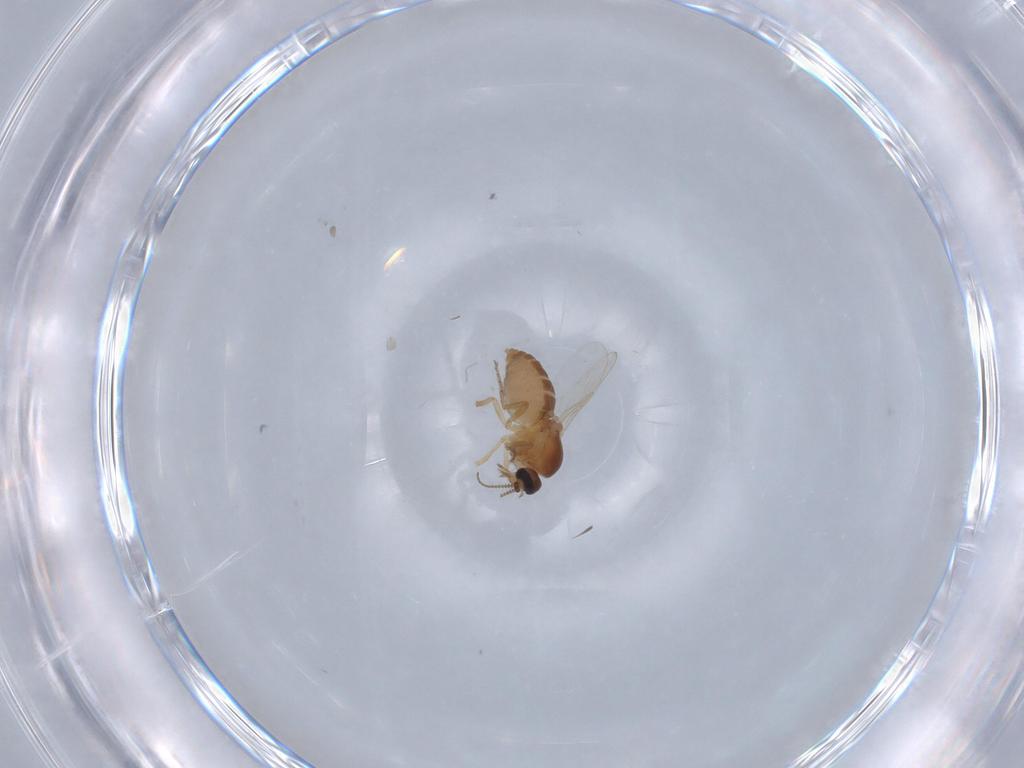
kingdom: Animalia
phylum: Arthropoda
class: Insecta
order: Diptera
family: Ceratopogonidae
